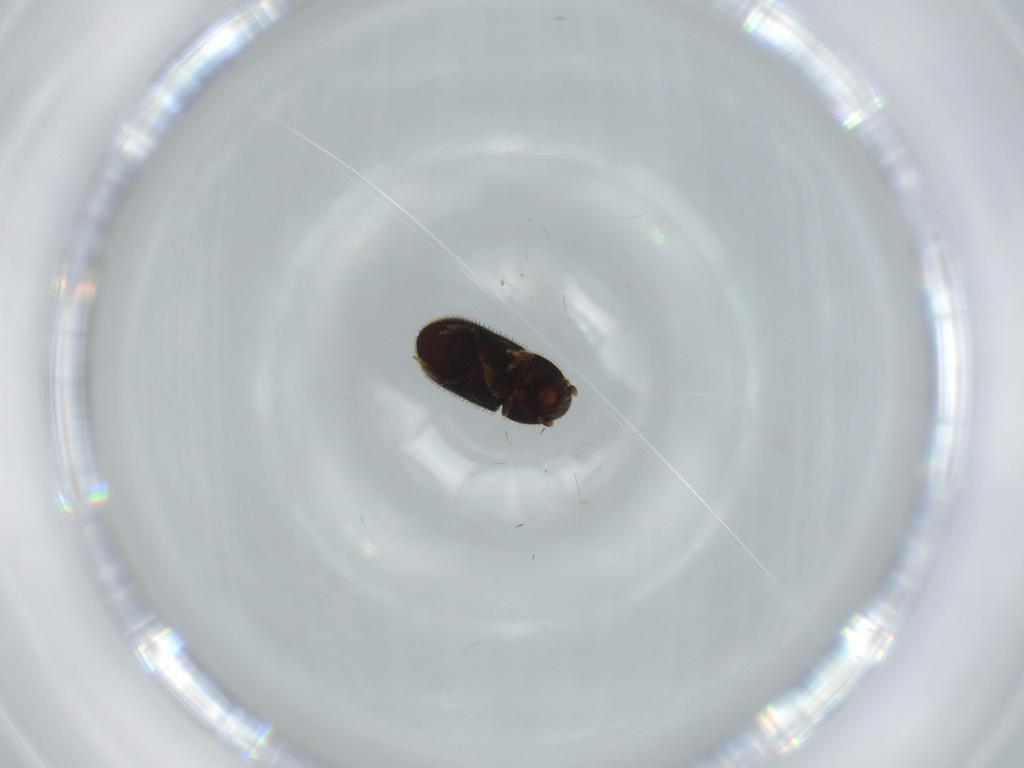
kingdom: Animalia
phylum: Arthropoda
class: Insecta
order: Coleoptera
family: Curculionidae
